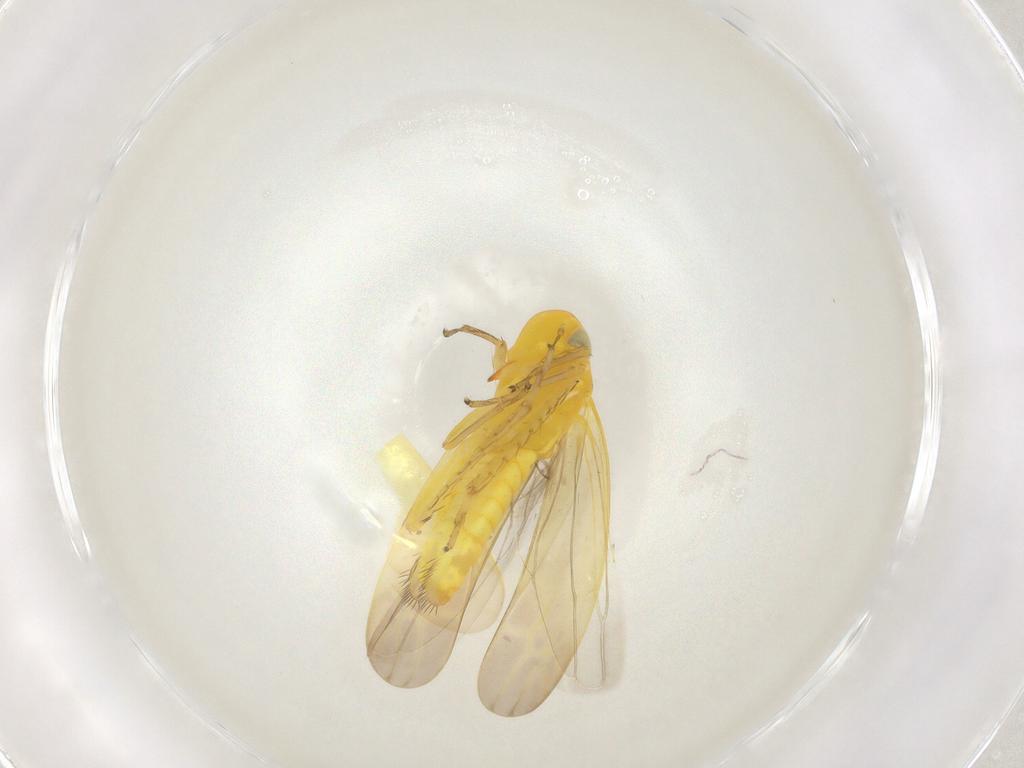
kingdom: Animalia
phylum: Arthropoda
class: Insecta
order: Hemiptera
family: Cicadellidae
